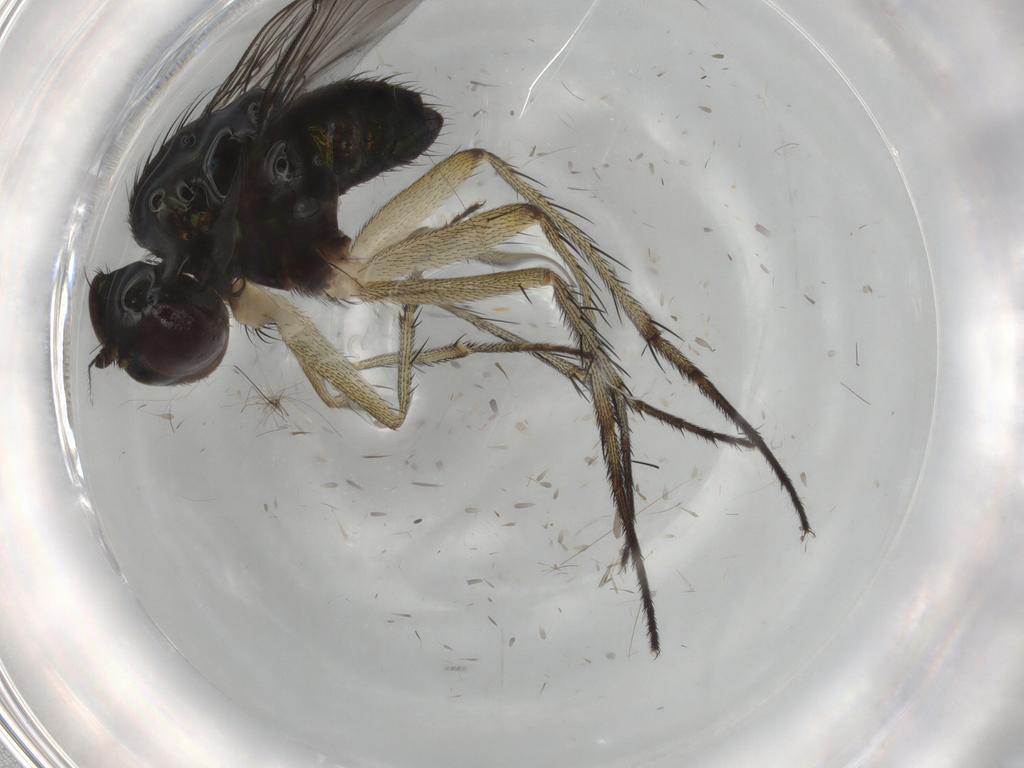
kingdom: Animalia
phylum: Arthropoda
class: Insecta
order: Diptera
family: Dolichopodidae
